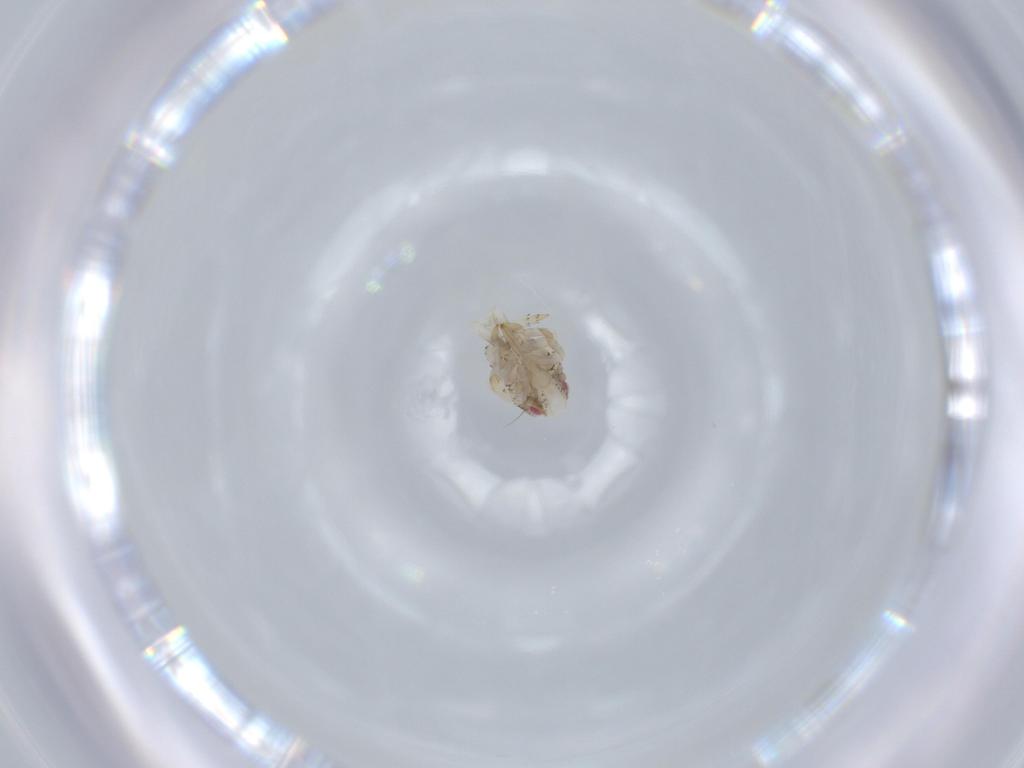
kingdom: Animalia
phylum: Arthropoda
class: Insecta
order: Hemiptera
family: Acanaloniidae
